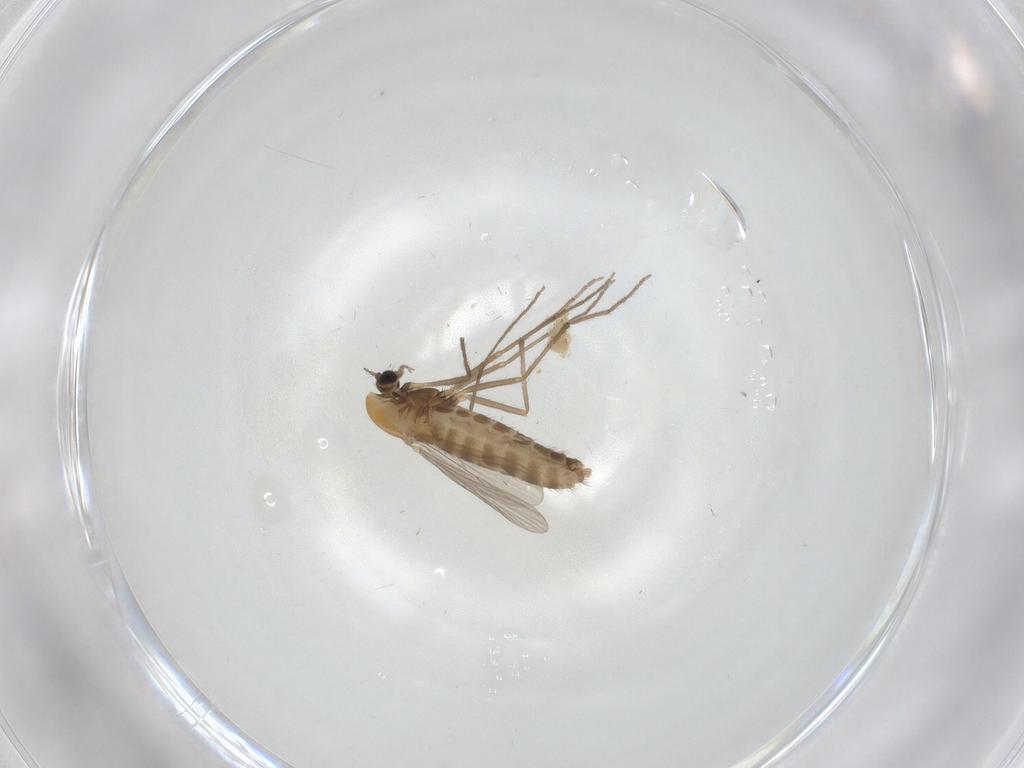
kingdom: Animalia
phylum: Arthropoda
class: Insecta
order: Diptera
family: Chironomidae
